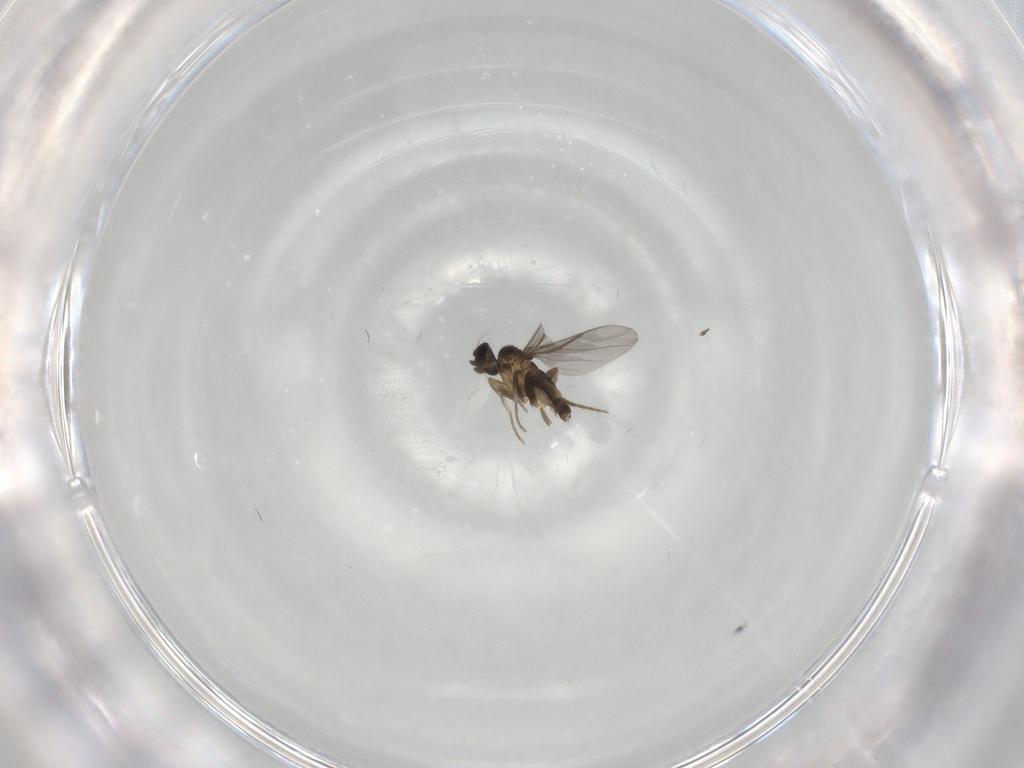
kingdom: Animalia
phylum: Arthropoda
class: Insecta
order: Diptera
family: Cecidomyiidae
